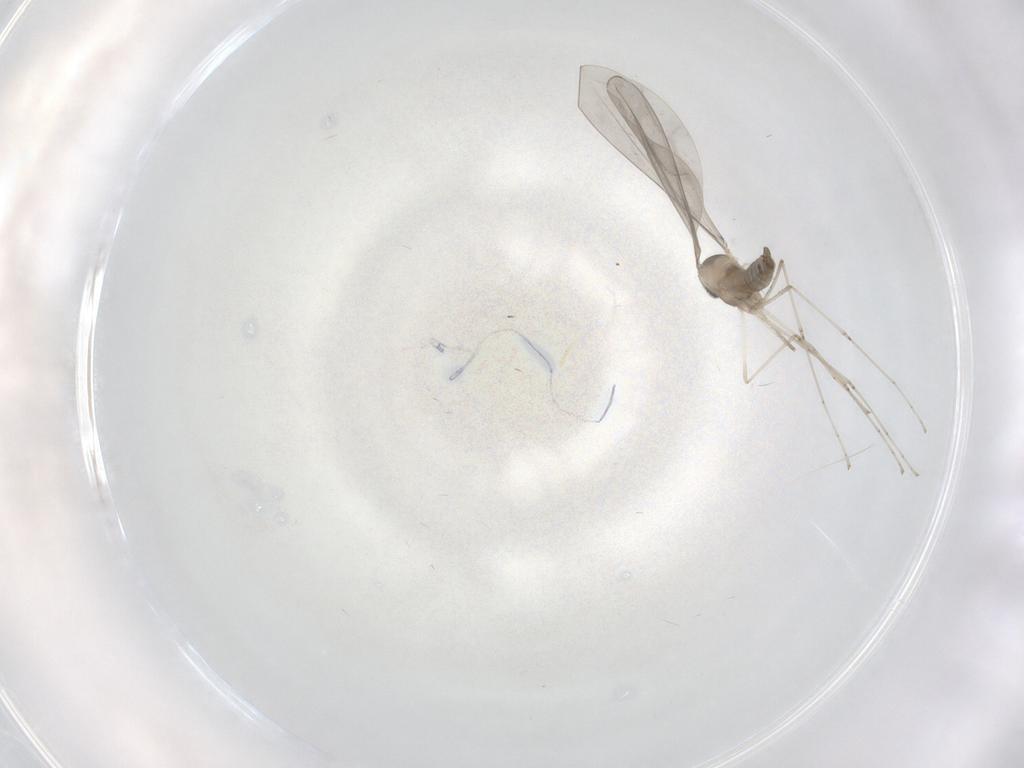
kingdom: Animalia
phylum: Arthropoda
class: Insecta
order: Diptera
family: Cecidomyiidae
